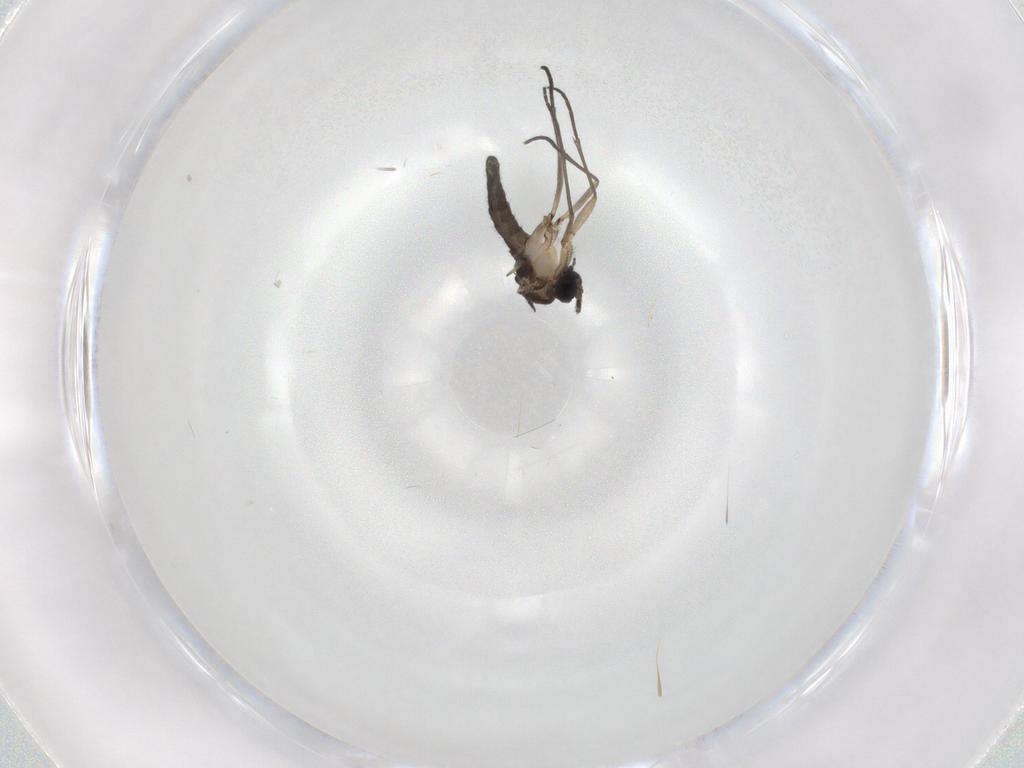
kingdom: Animalia
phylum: Arthropoda
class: Insecta
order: Diptera
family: Sciaridae
